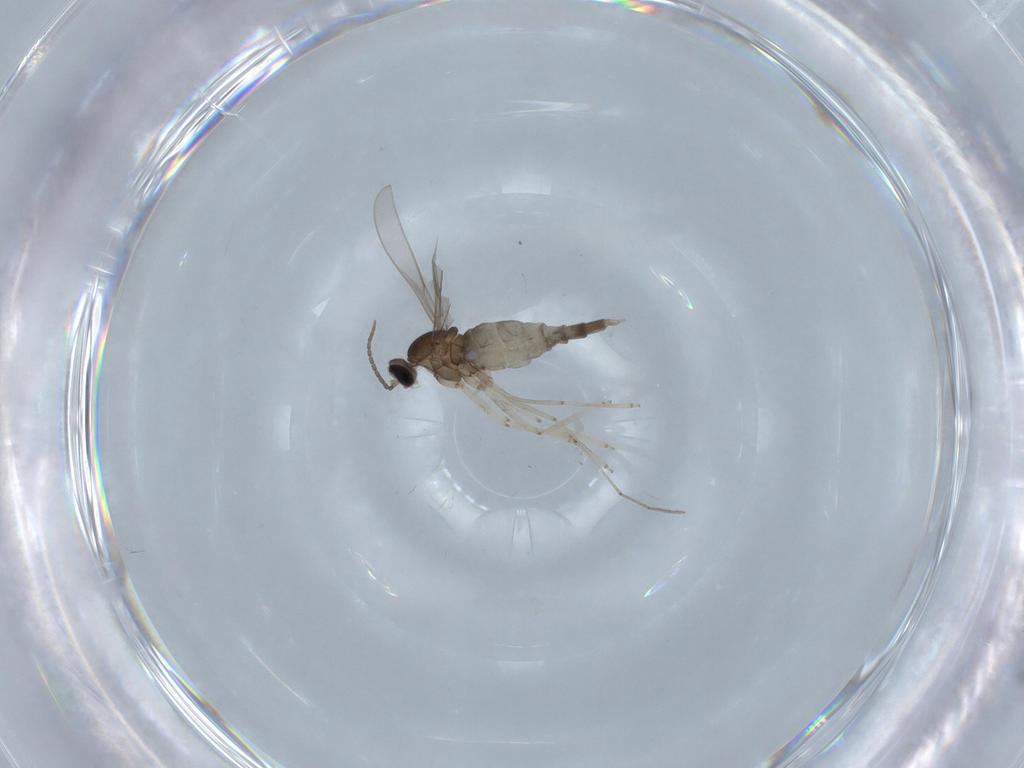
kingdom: Animalia
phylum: Arthropoda
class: Insecta
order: Diptera
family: Cecidomyiidae
